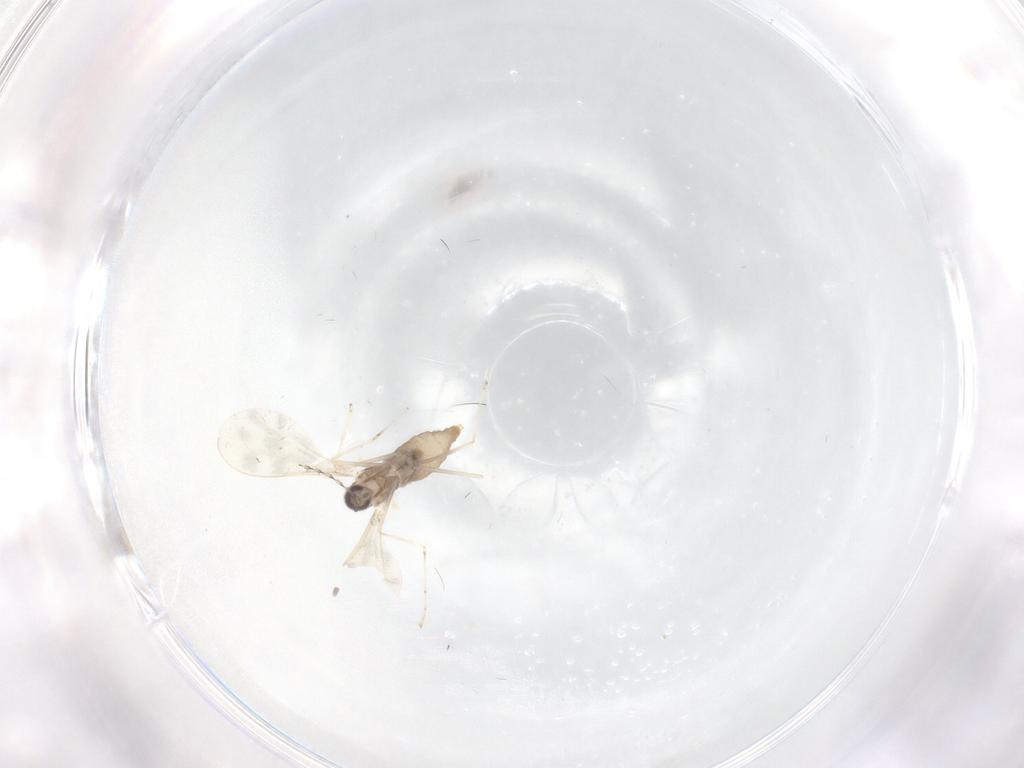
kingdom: Animalia
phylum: Arthropoda
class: Insecta
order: Diptera
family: Cecidomyiidae
